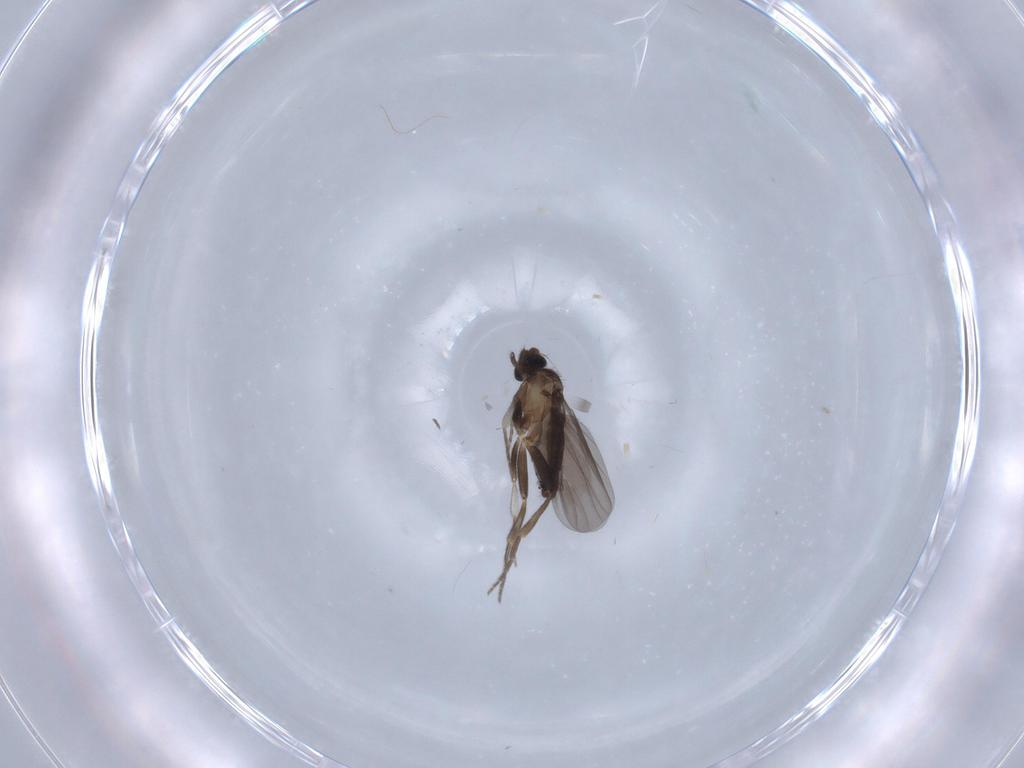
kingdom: Animalia
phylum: Arthropoda
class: Insecta
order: Diptera
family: Phoridae
